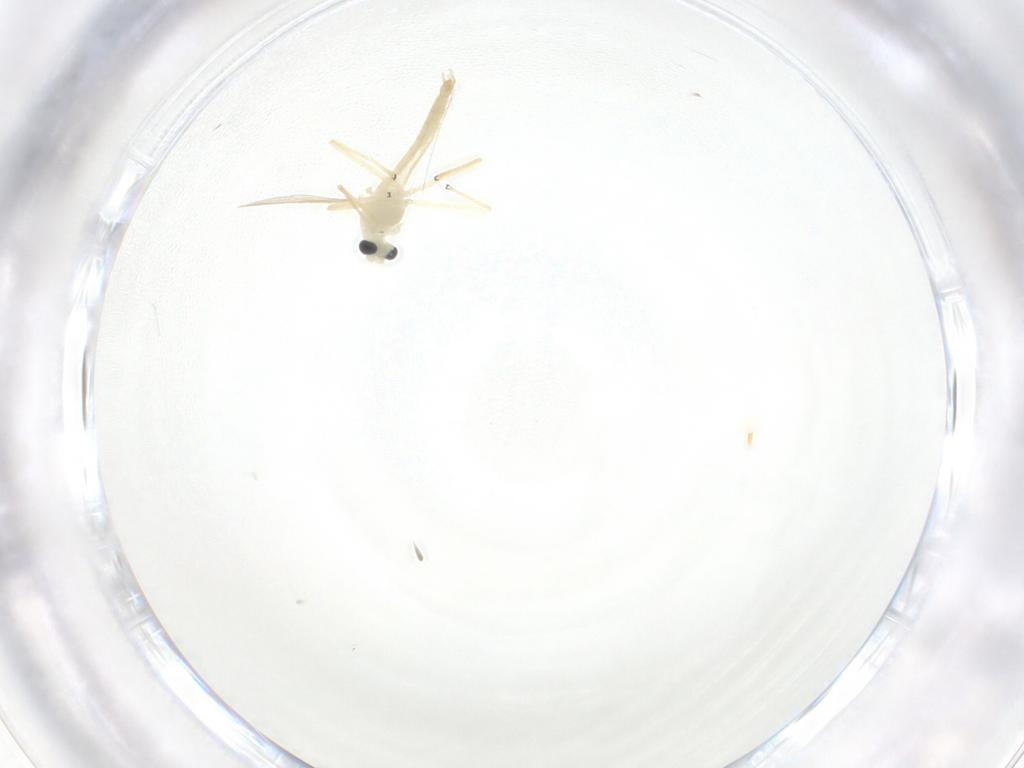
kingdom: Animalia
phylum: Arthropoda
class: Insecta
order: Diptera
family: Chironomidae
